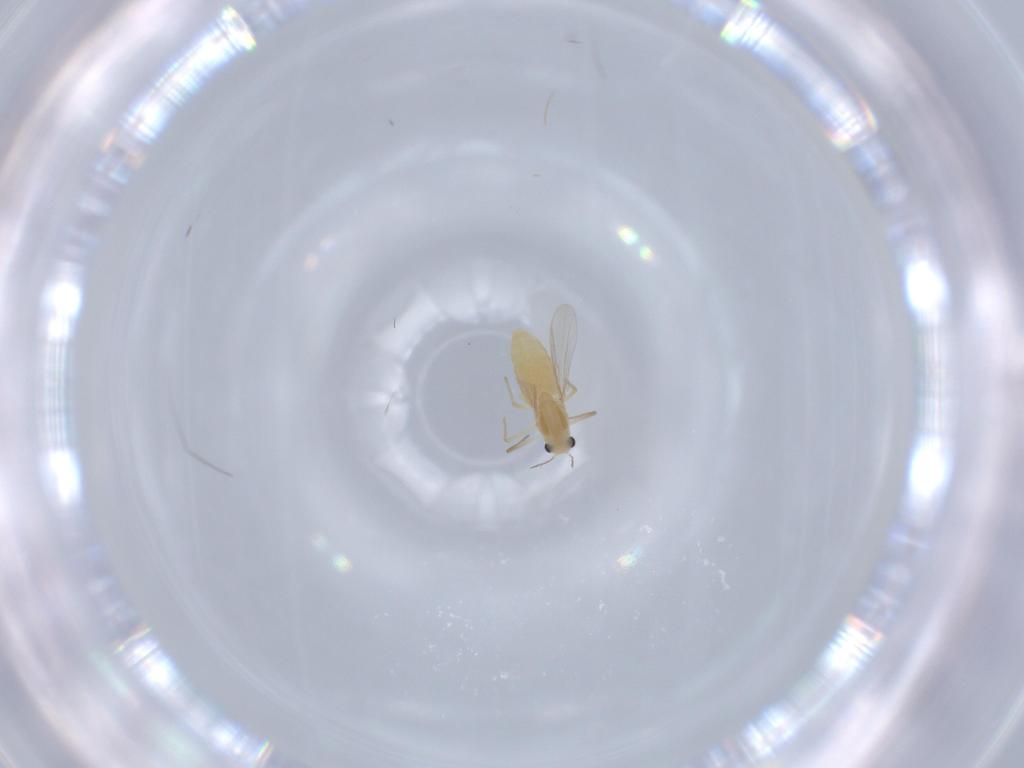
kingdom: Animalia
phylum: Arthropoda
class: Insecta
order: Diptera
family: Chironomidae
